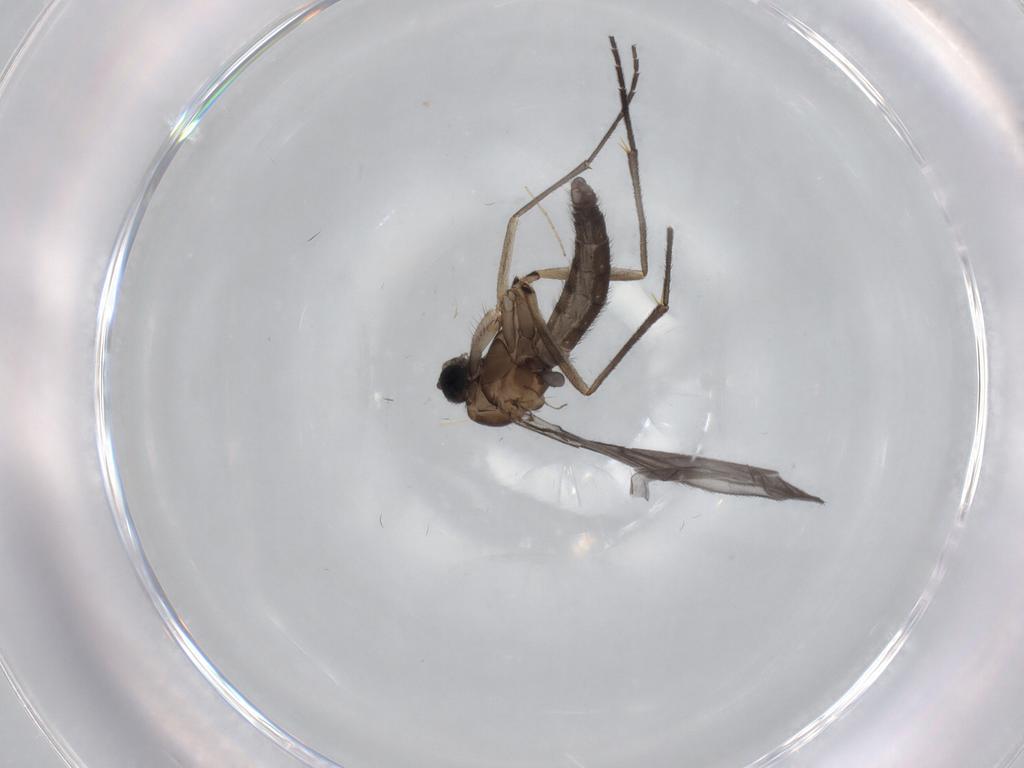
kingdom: Animalia
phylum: Arthropoda
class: Insecta
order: Diptera
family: Sciaridae
